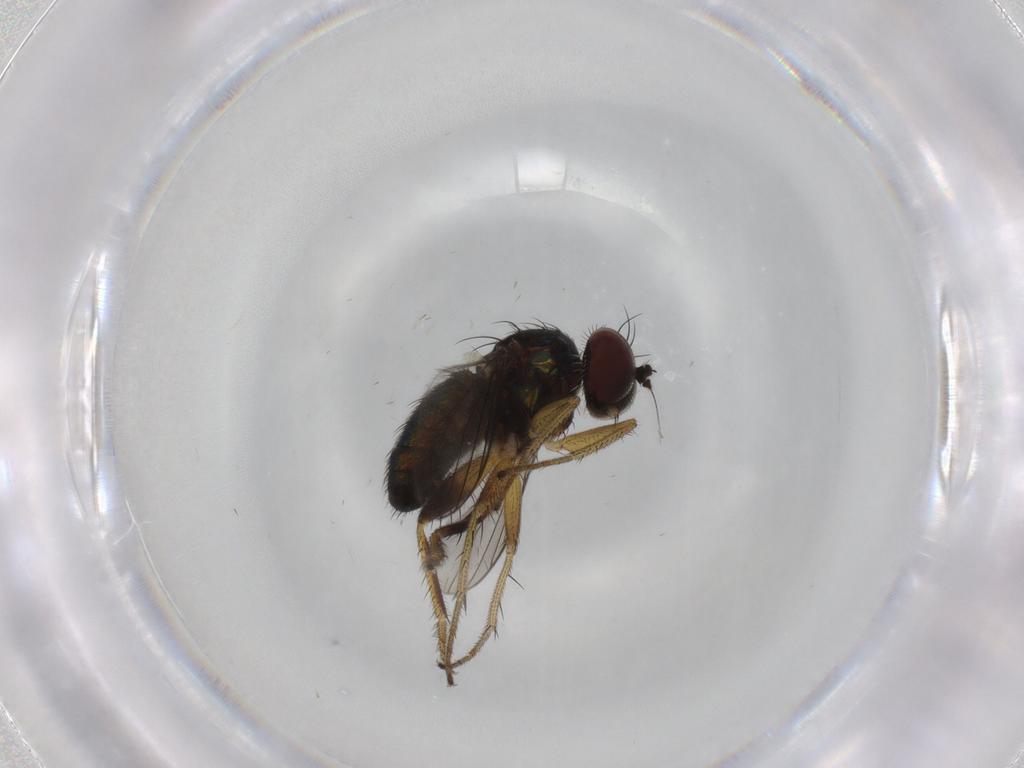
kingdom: Animalia
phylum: Arthropoda
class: Insecta
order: Diptera
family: Dolichopodidae
